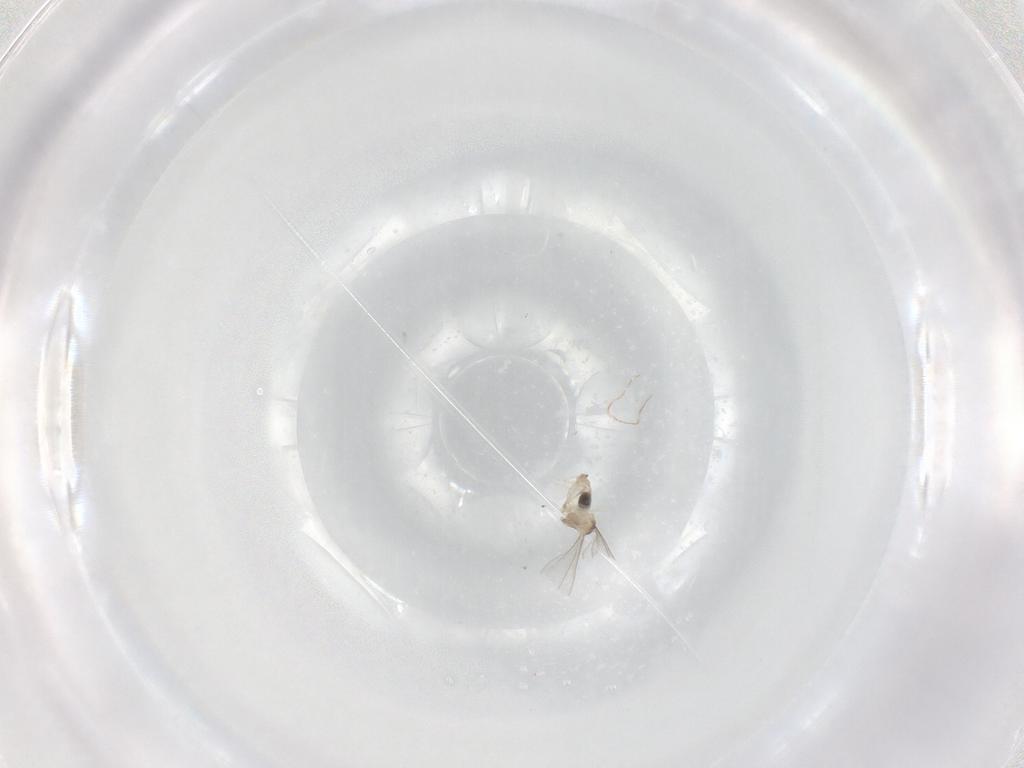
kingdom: Animalia
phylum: Arthropoda
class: Insecta
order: Diptera
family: Cecidomyiidae
